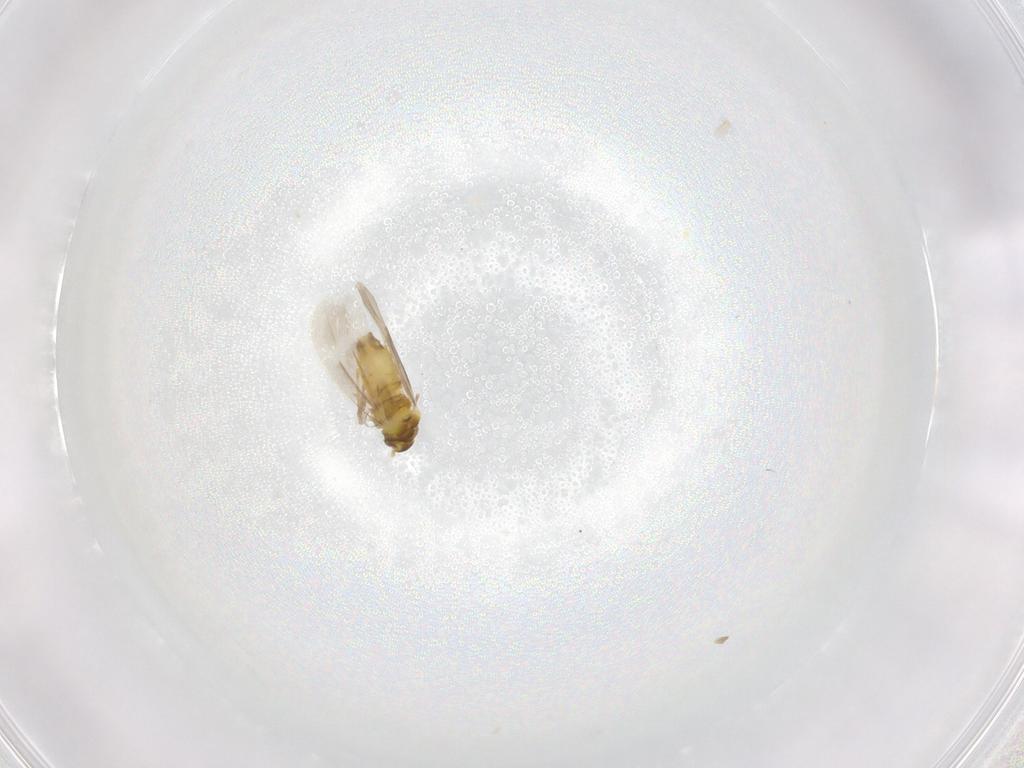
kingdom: Animalia
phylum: Arthropoda
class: Insecta
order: Hemiptera
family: Aleyrodidae
